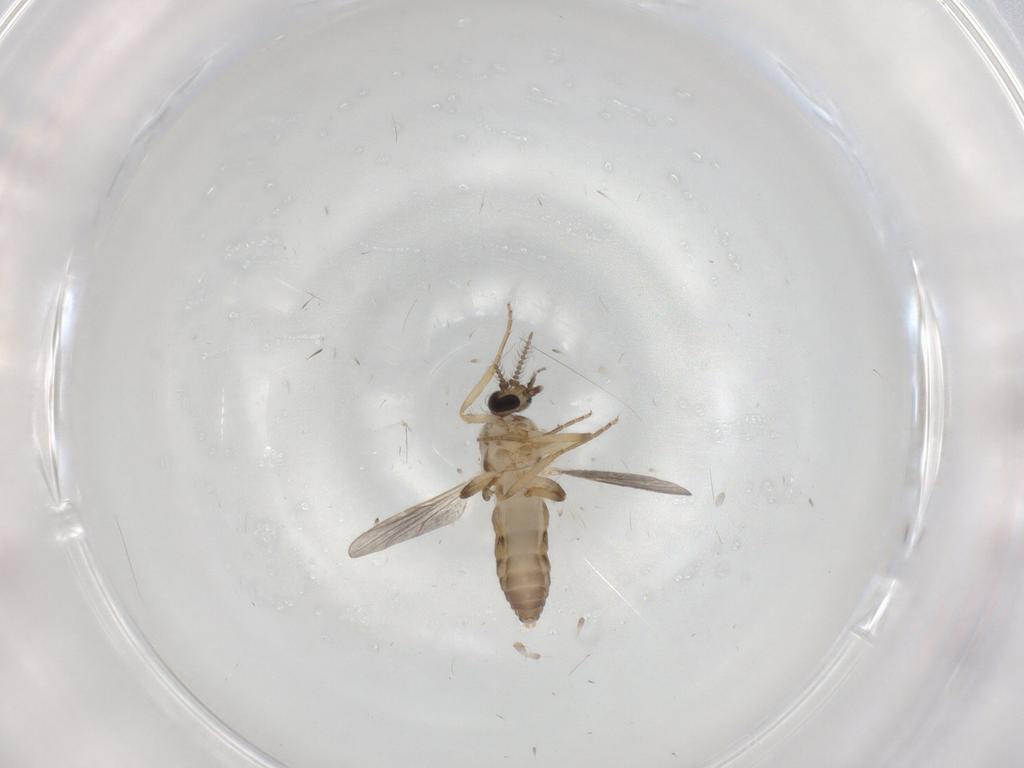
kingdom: Animalia
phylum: Arthropoda
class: Insecta
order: Diptera
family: Ceratopogonidae
